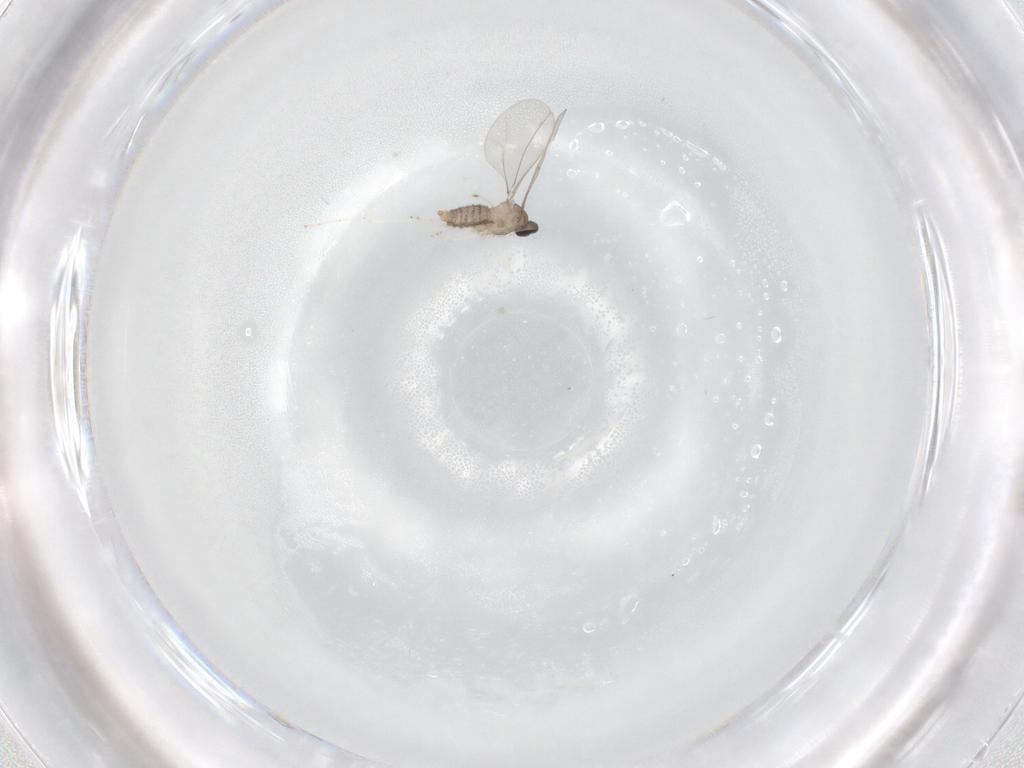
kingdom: Animalia
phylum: Arthropoda
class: Insecta
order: Diptera
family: Cecidomyiidae
